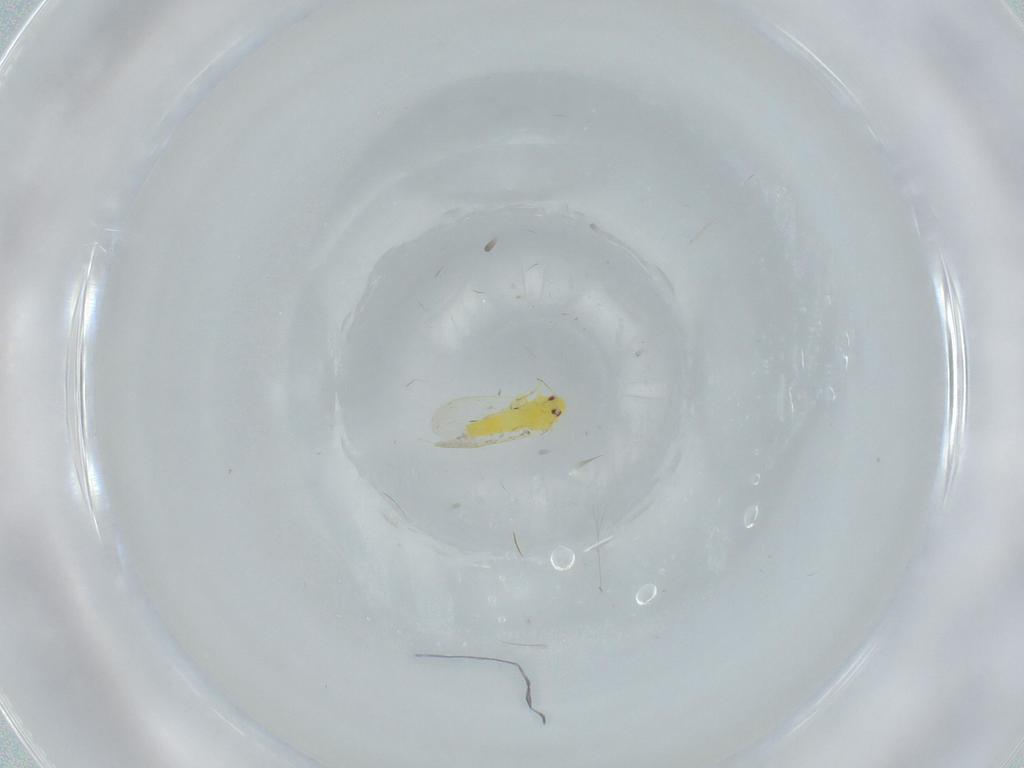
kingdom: Animalia
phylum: Arthropoda
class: Insecta
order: Hemiptera
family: Aleyrodidae
